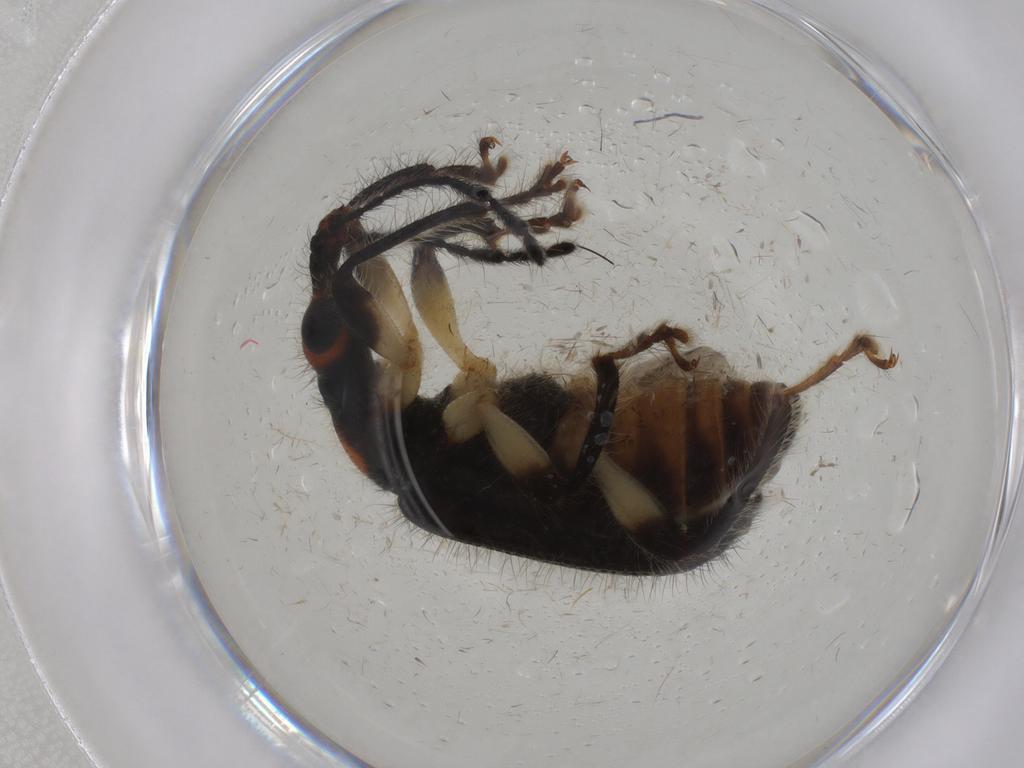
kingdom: Animalia
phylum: Arthropoda
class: Insecta
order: Coleoptera
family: Attelabidae
